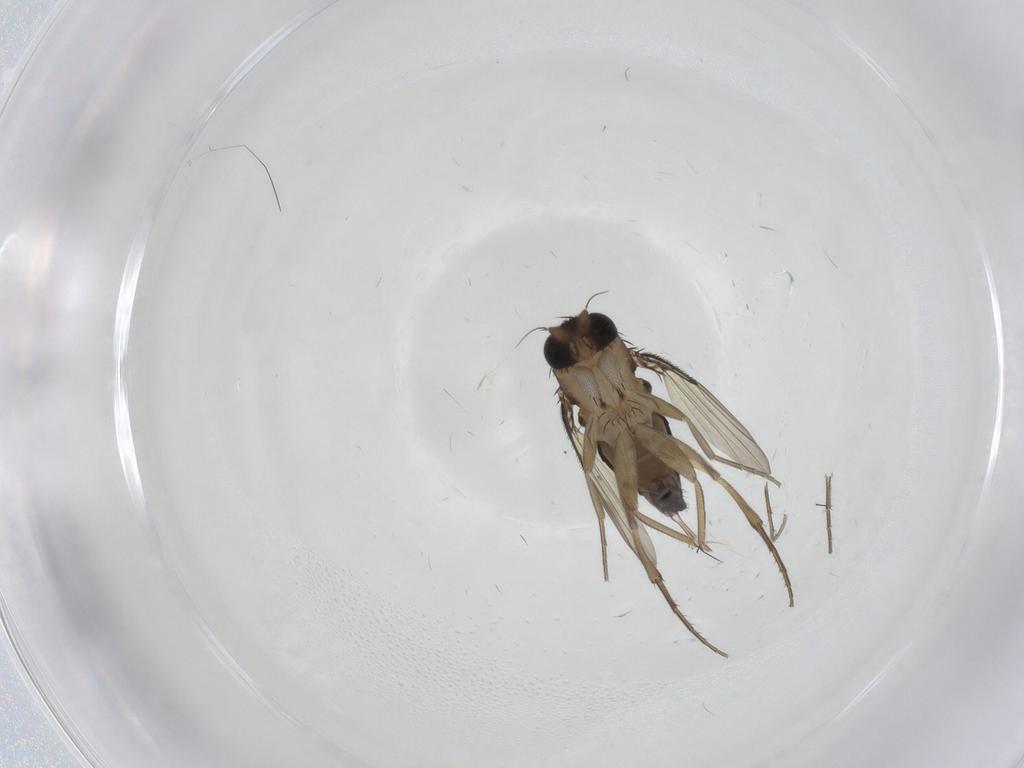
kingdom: Animalia
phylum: Arthropoda
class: Insecta
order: Diptera
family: Phoridae
